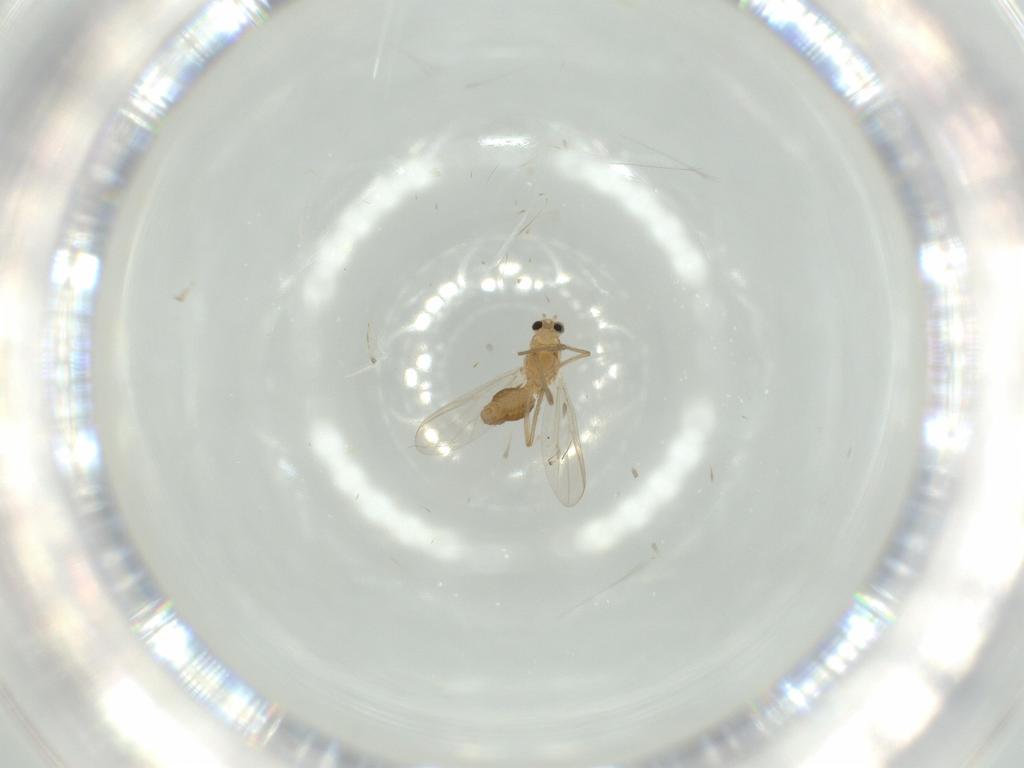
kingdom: Animalia
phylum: Arthropoda
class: Insecta
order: Diptera
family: Chironomidae
